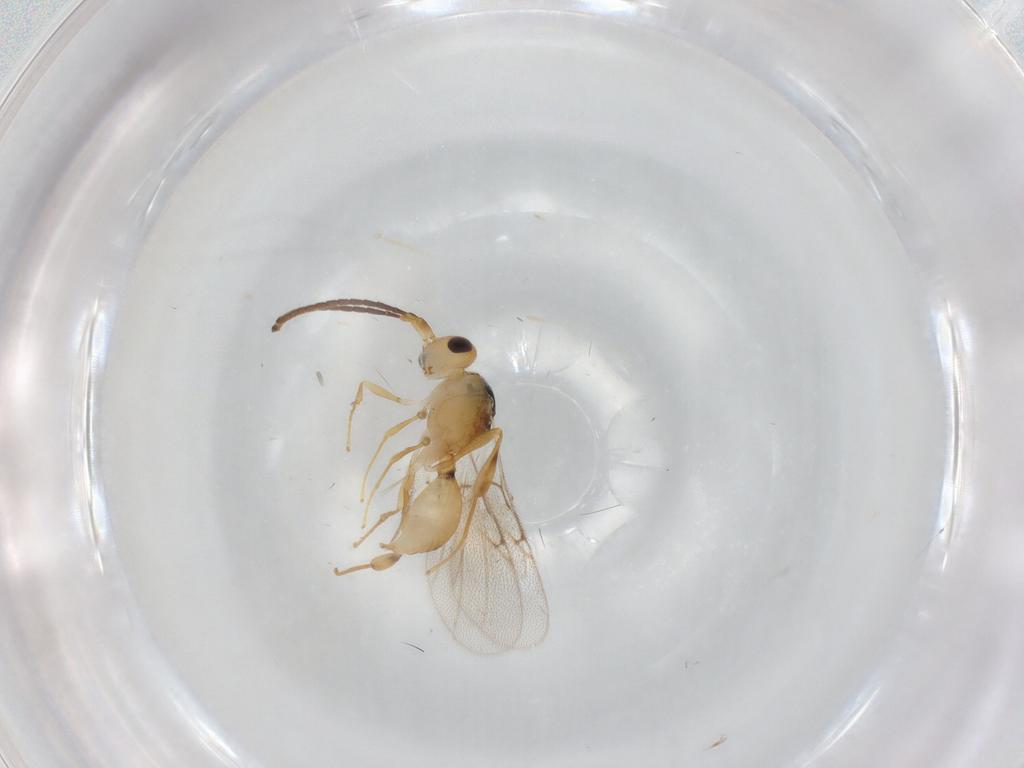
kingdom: Animalia
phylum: Arthropoda
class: Insecta
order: Hymenoptera
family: Diapriidae
